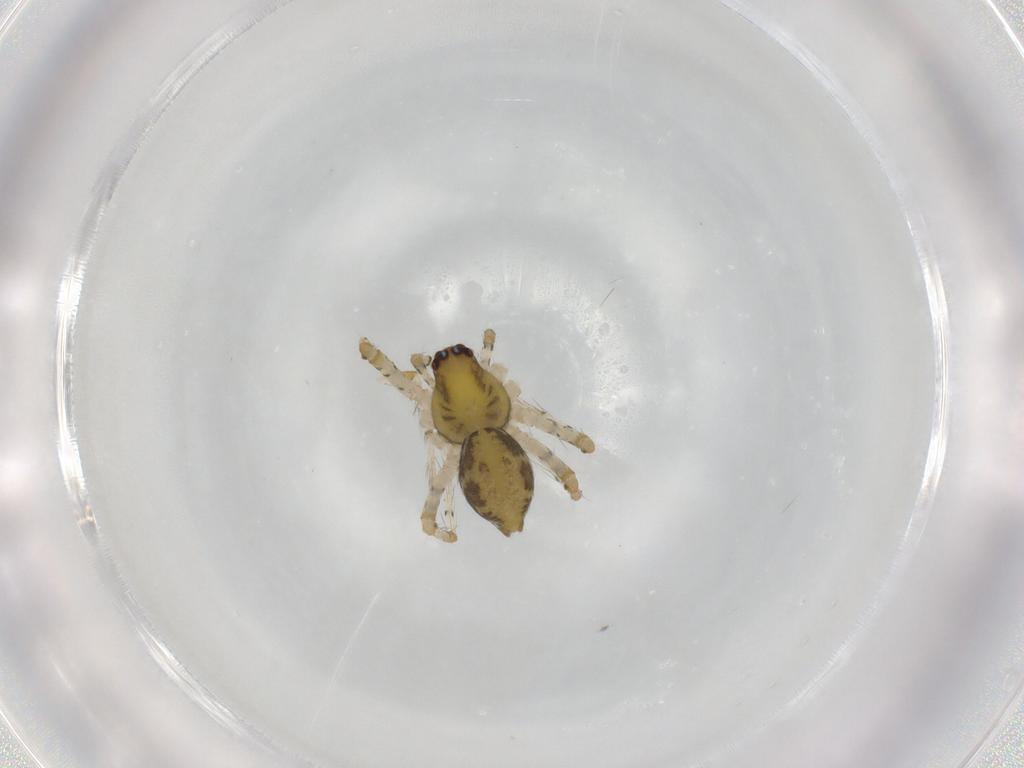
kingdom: Animalia
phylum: Arthropoda
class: Arachnida
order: Araneae
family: Lycosidae
